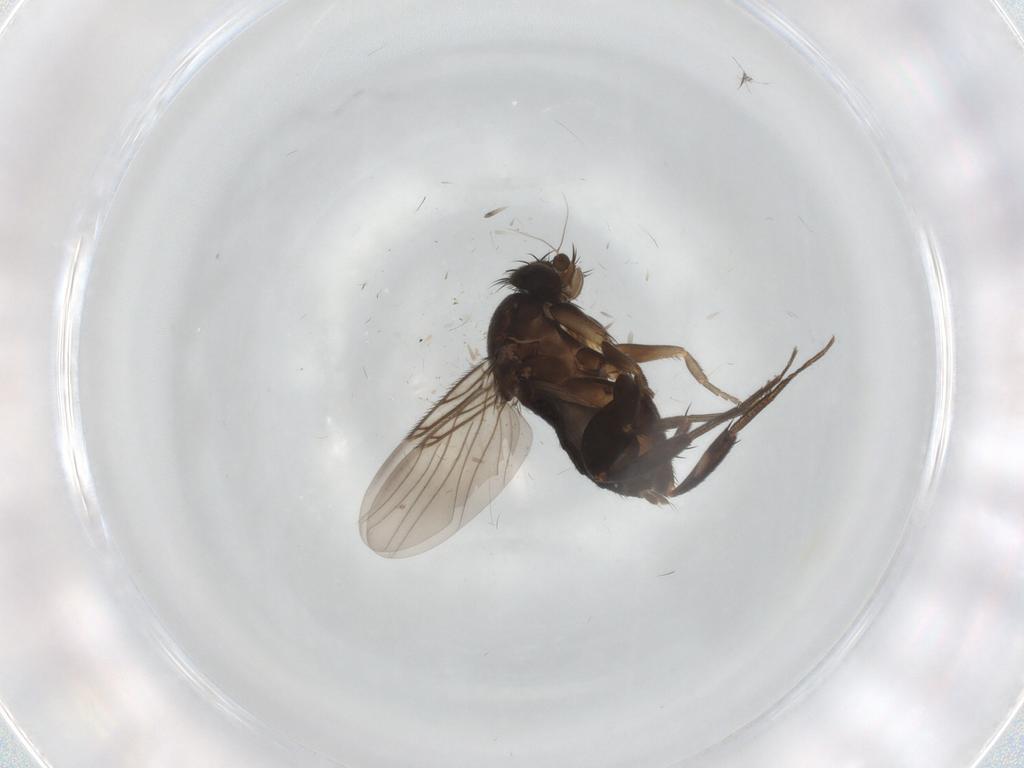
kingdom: Animalia
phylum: Arthropoda
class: Insecta
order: Diptera
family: Phoridae
